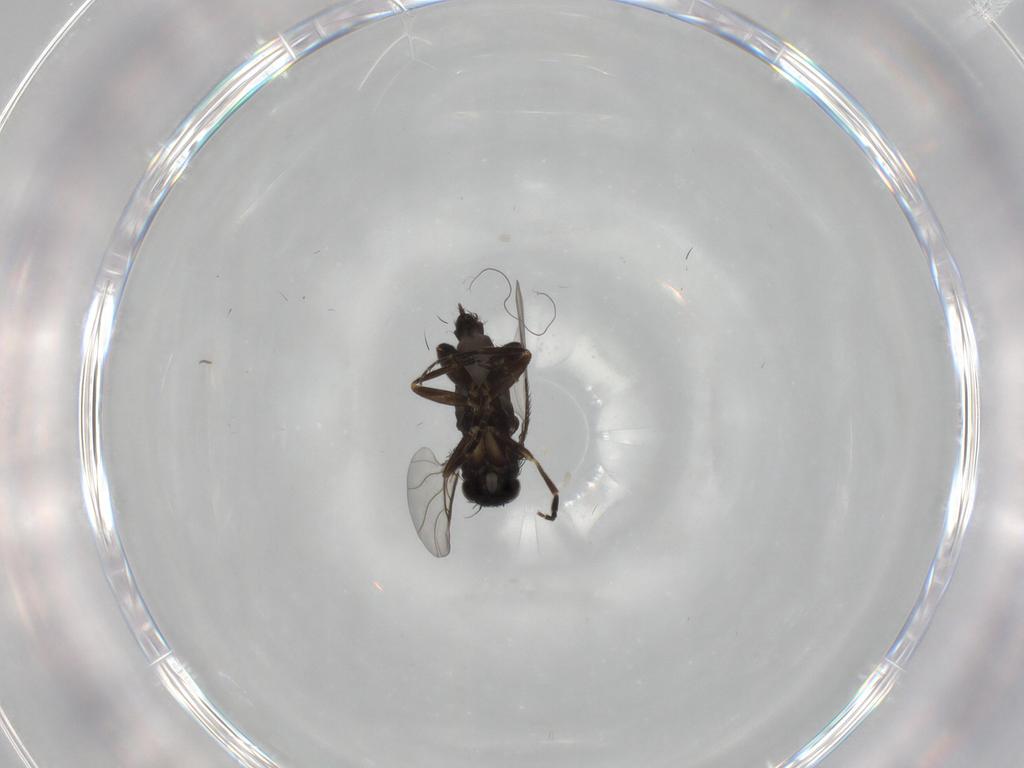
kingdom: Animalia
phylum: Arthropoda
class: Insecta
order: Diptera
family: Phoridae
